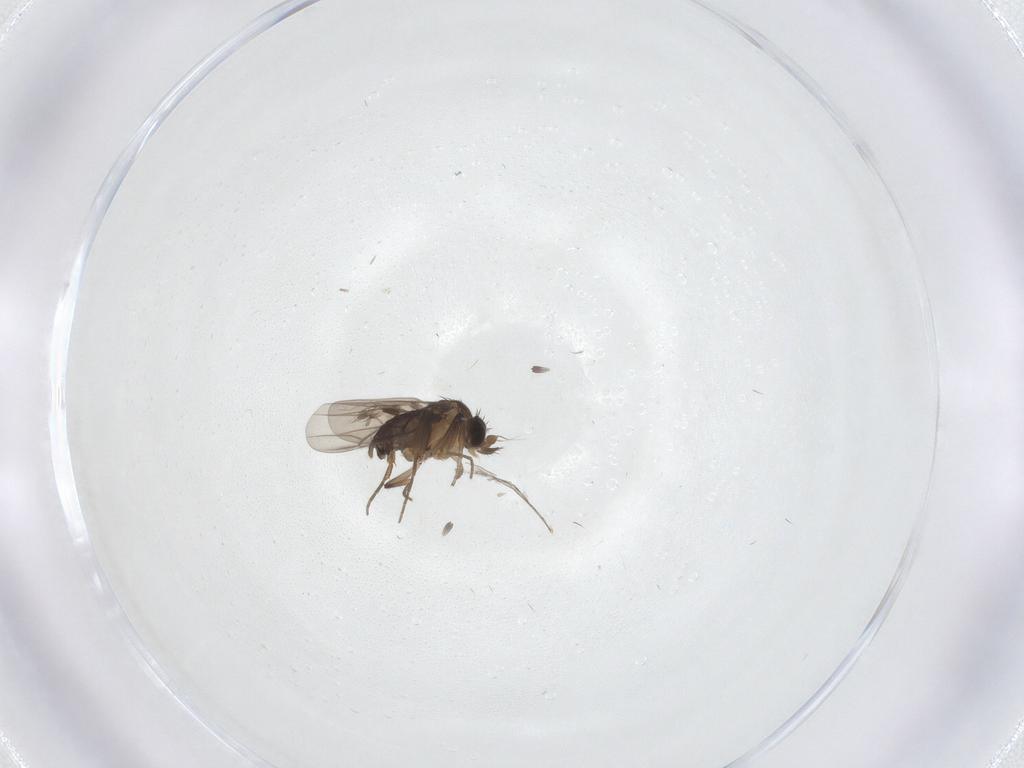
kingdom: Animalia
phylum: Arthropoda
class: Insecta
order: Diptera
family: Phoridae
